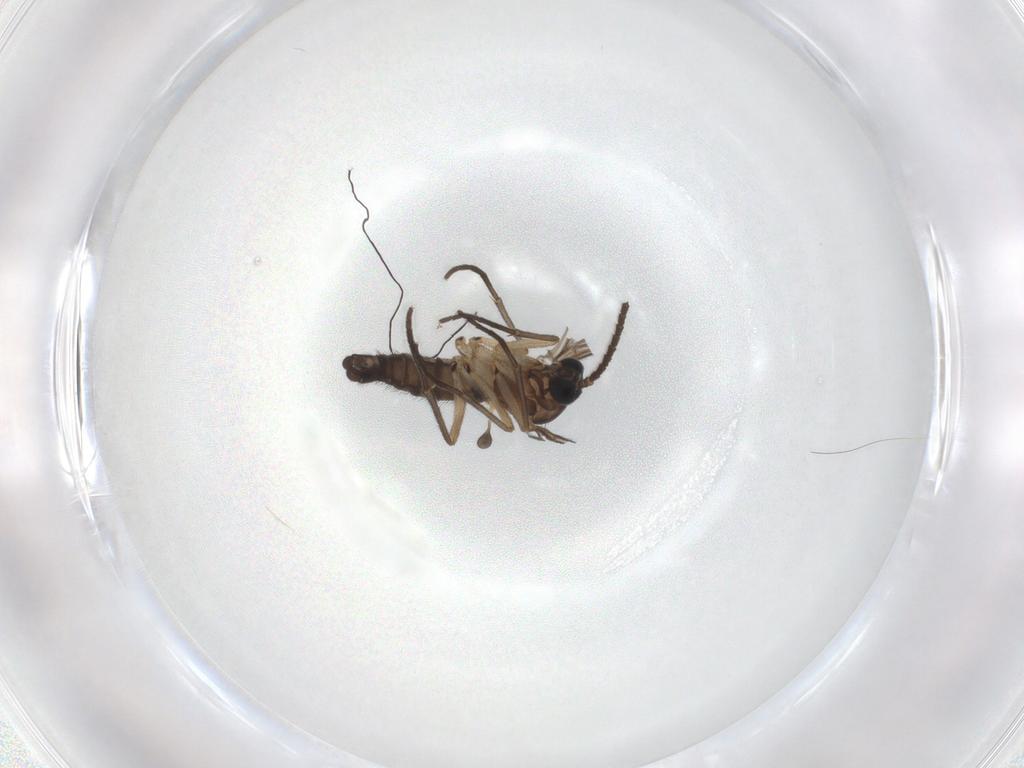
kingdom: Animalia
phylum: Arthropoda
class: Insecta
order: Diptera
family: Sciaridae
